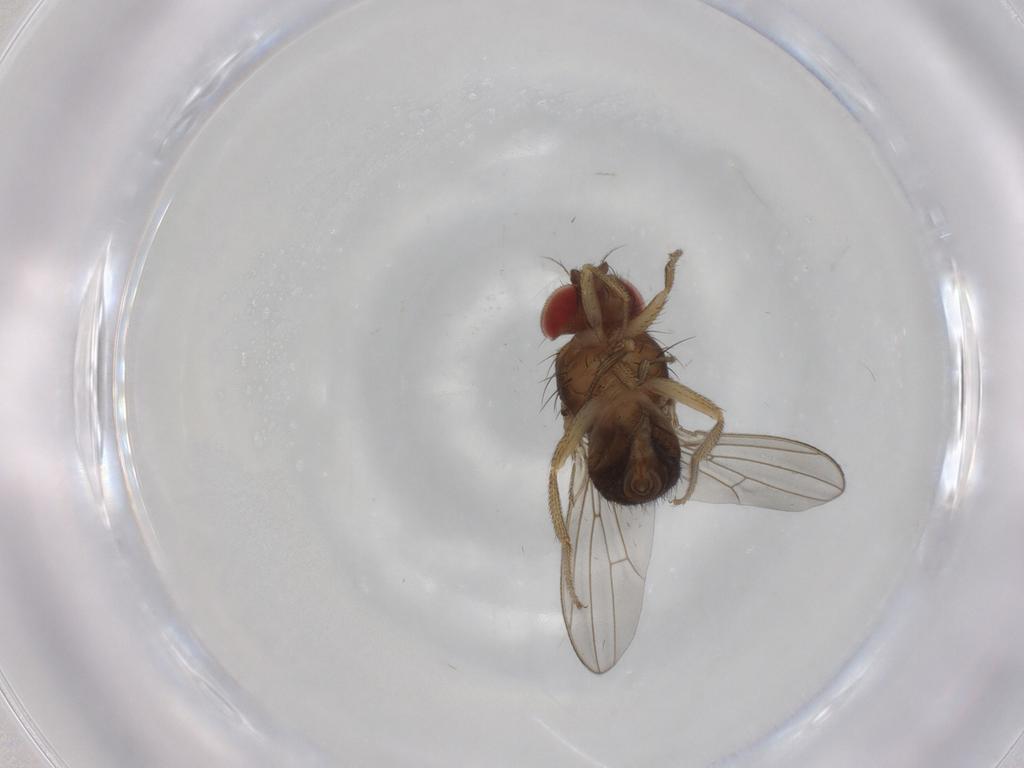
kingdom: Animalia
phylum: Arthropoda
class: Insecta
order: Diptera
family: Drosophilidae
